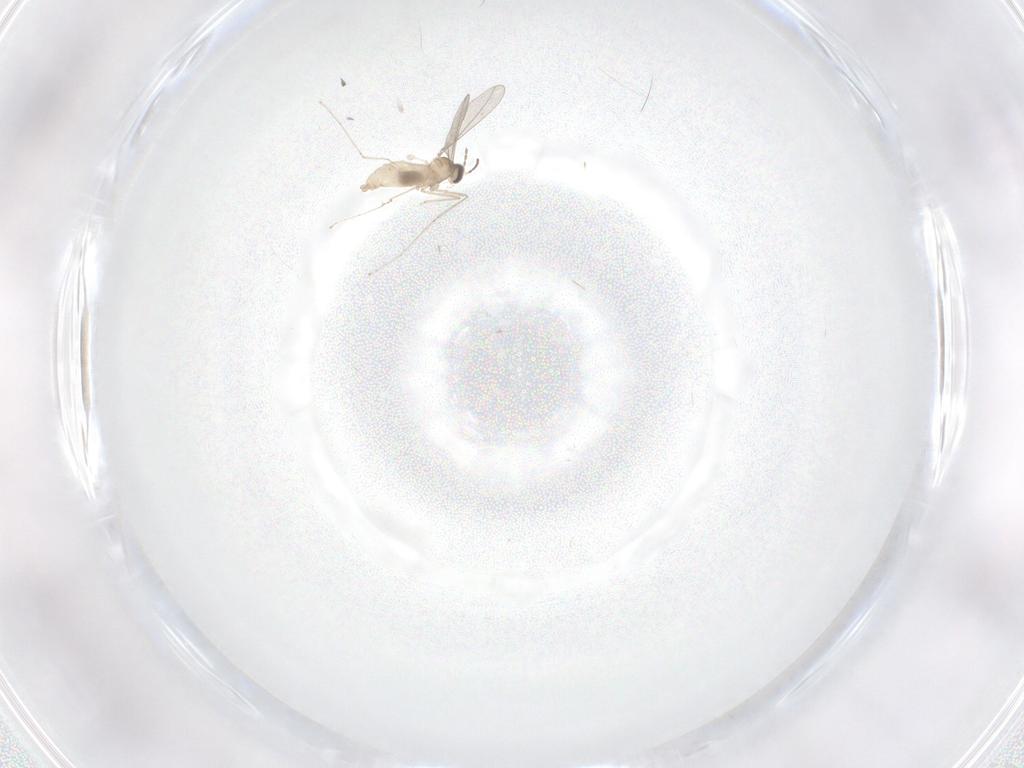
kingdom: Animalia
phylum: Arthropoda
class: Insecta
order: Diptera
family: Cecidomyiidae
